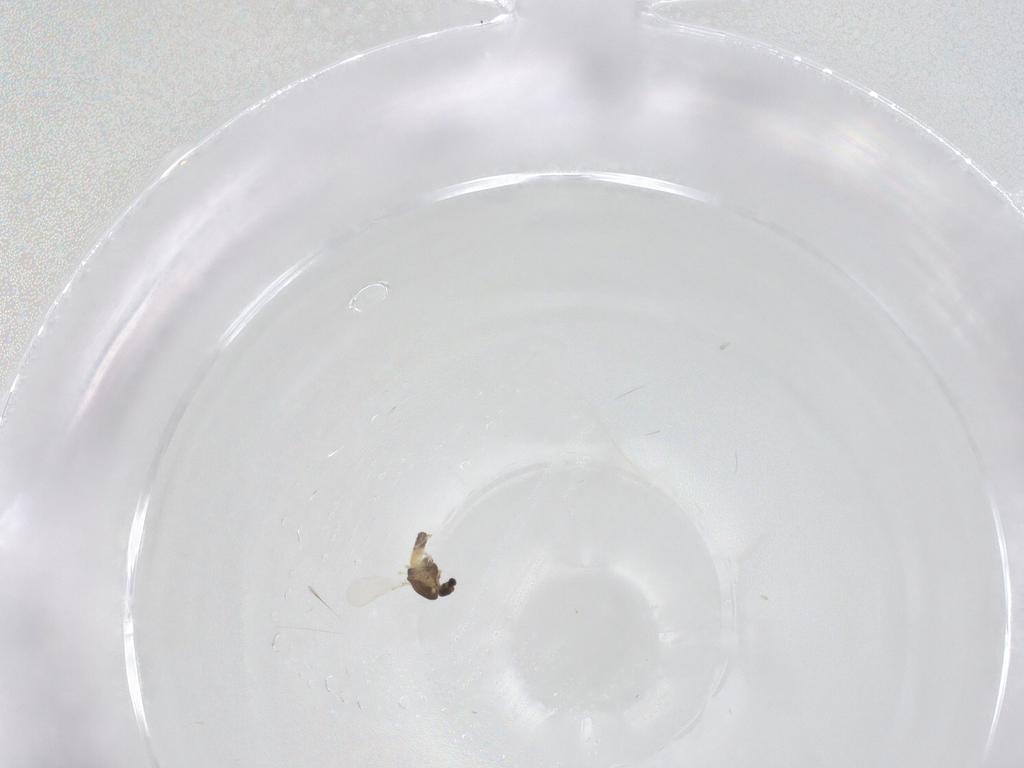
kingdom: Animalia
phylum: Arthropoda
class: Insecta
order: Diptera
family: Chironomidae
